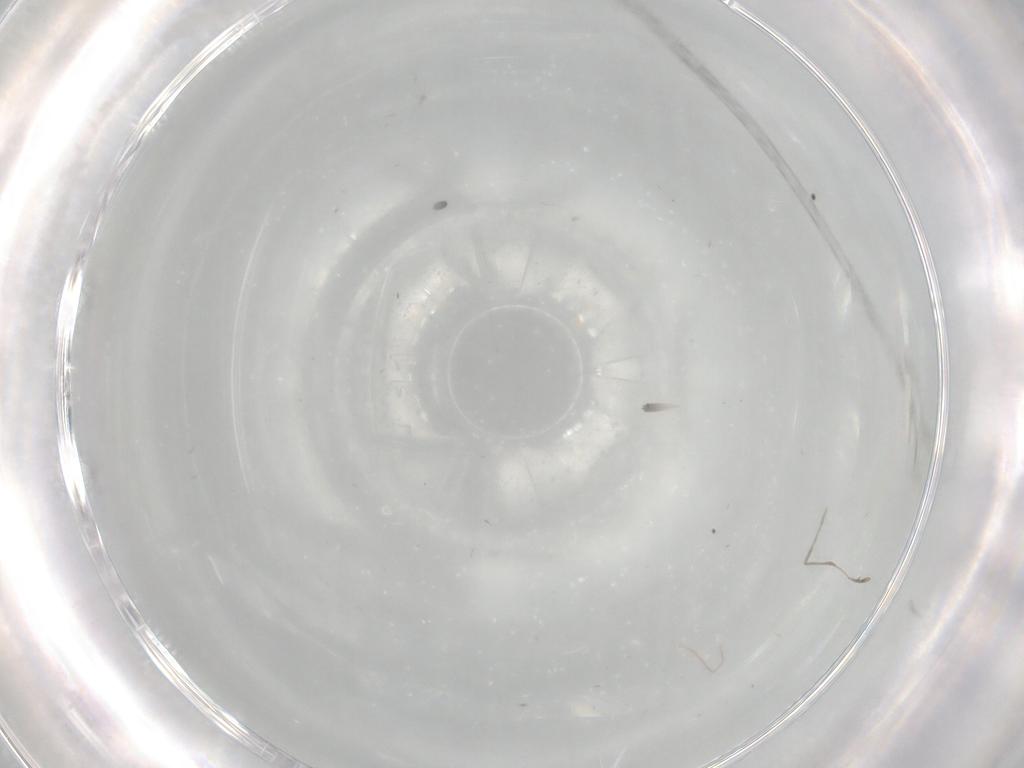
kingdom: Animalia
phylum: Arthropoda
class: Insecta
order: Diptera
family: Cecidomyiidae
